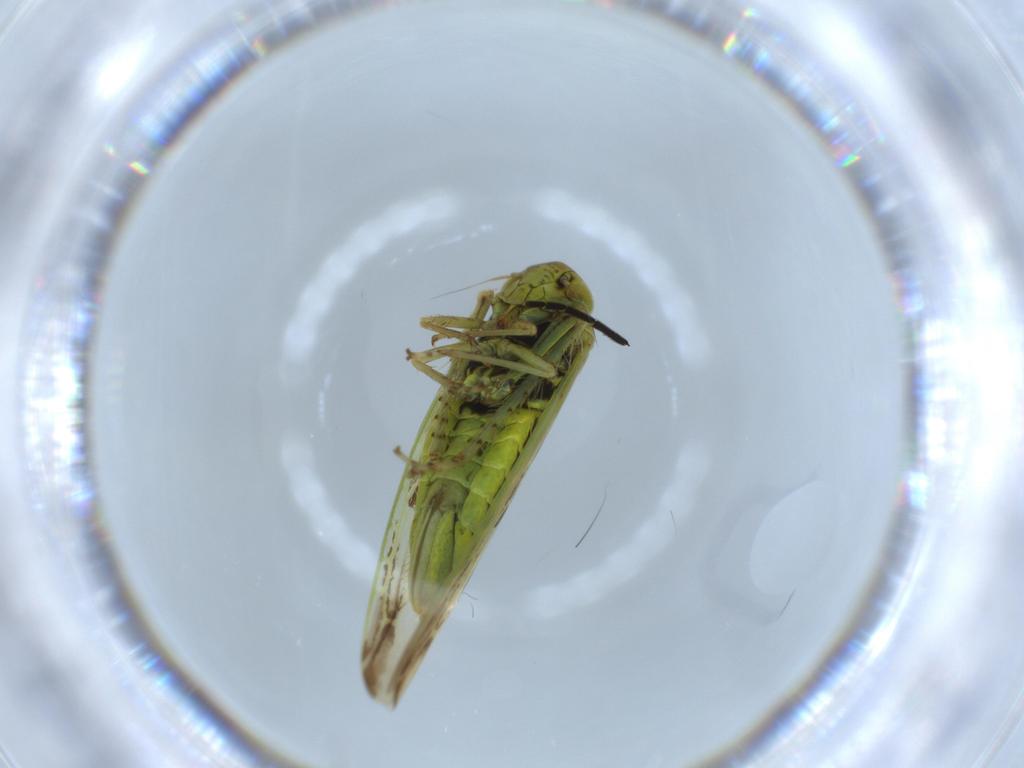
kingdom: Animalia
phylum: Arthropoda
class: Insecta
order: Hemiptera
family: Cicadellidae
